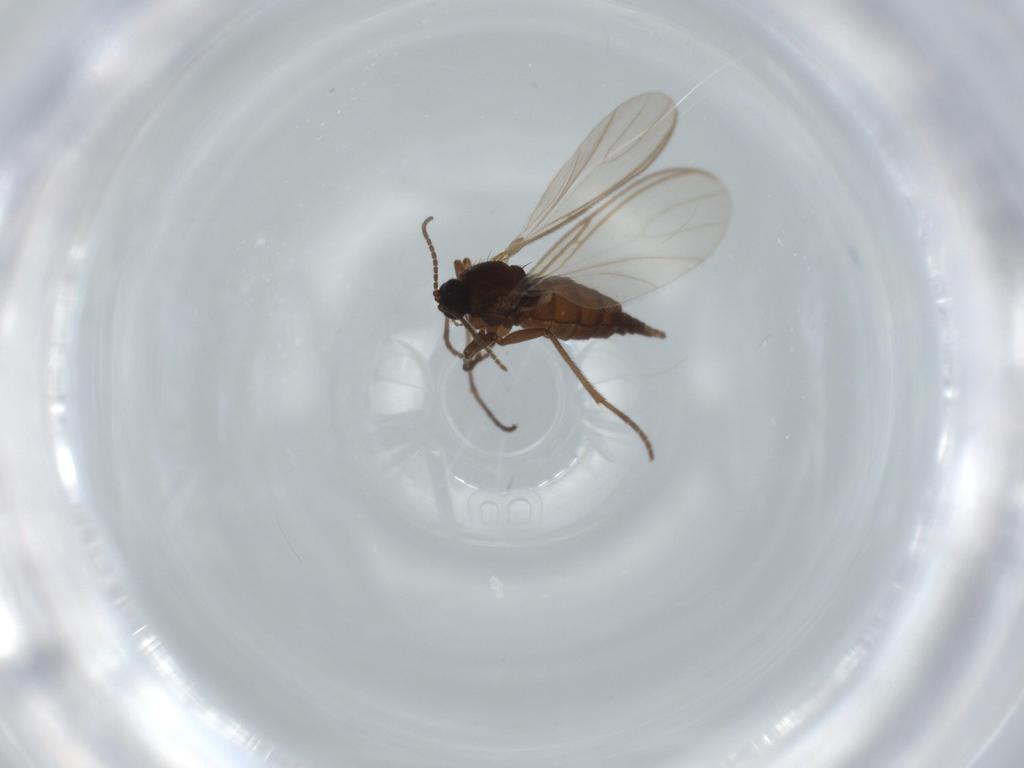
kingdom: Animalia
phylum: Arthropoda
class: Insecta
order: Diptera
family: Sciaridae
